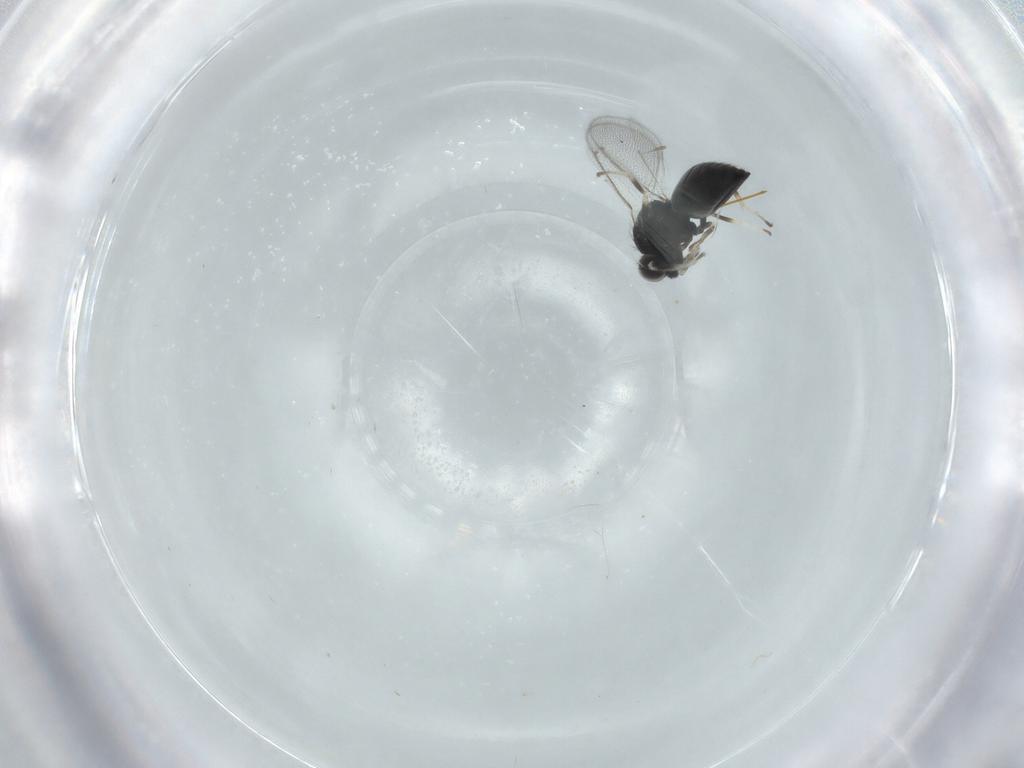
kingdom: Animalia
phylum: Arthropoda
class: Insecta
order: Hymenoptera
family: Eulophidae
